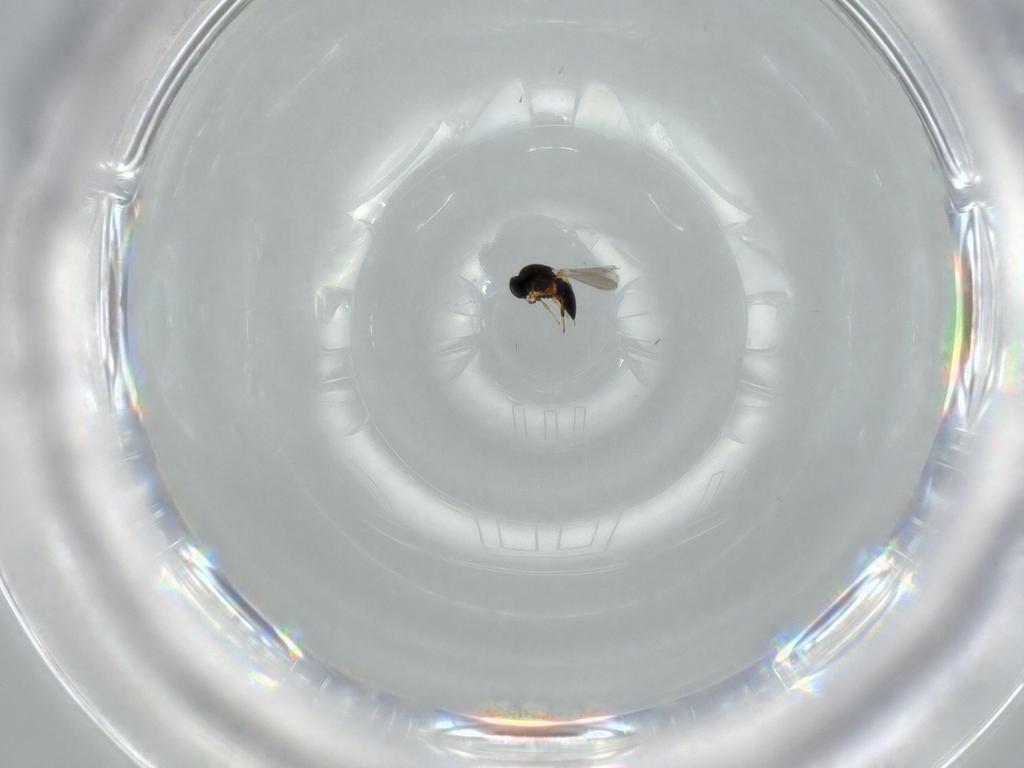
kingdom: Animalia
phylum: Arthropoda
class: Insecta
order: Hymenoptera
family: Platygastridae
